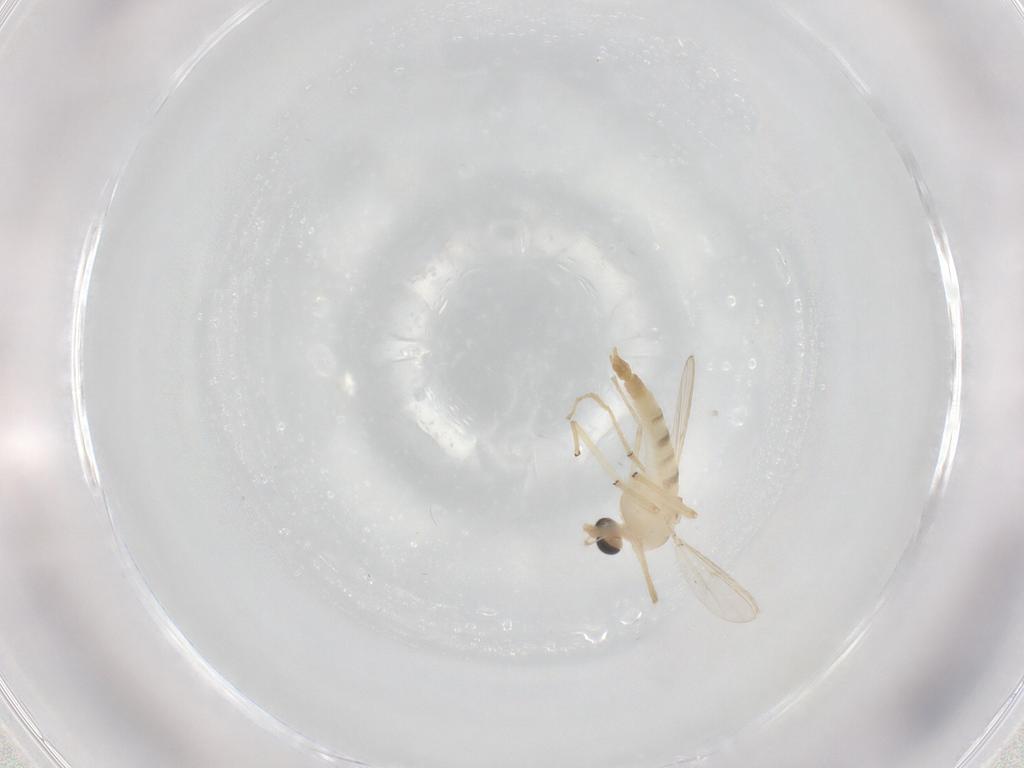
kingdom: Animalia
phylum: Arthropoda
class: Insecta
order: Diptera
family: Chironomidae
